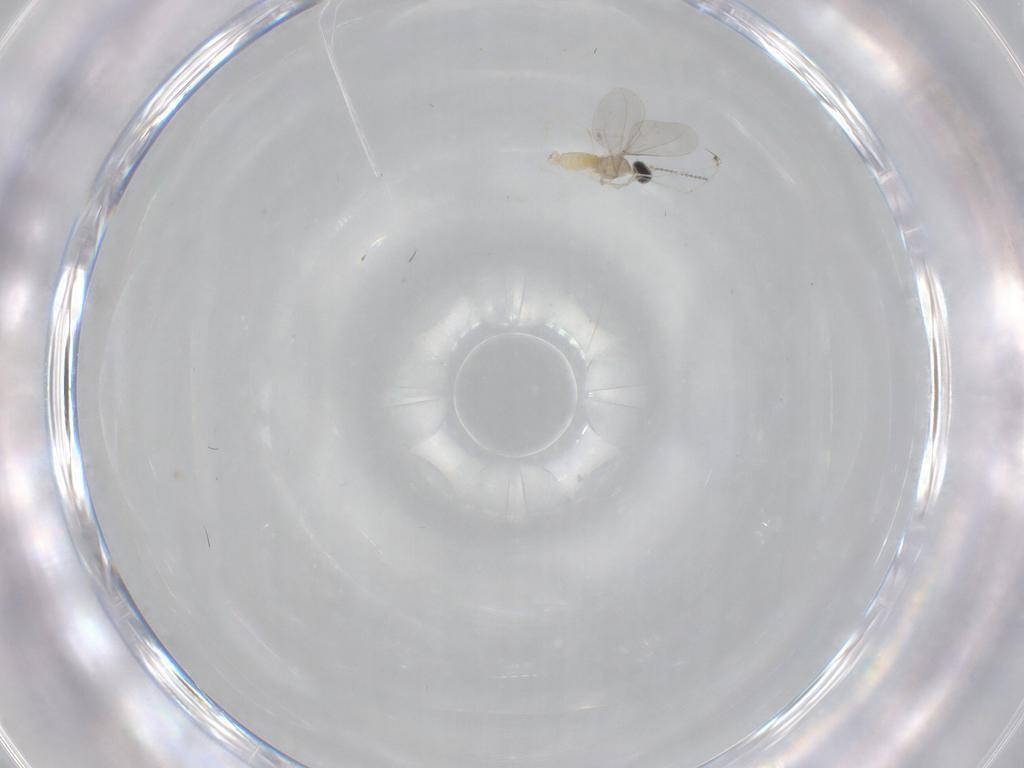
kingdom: Animalia
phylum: Arthropoda
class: Insecta
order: Diptera
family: Cecidomyiidae
